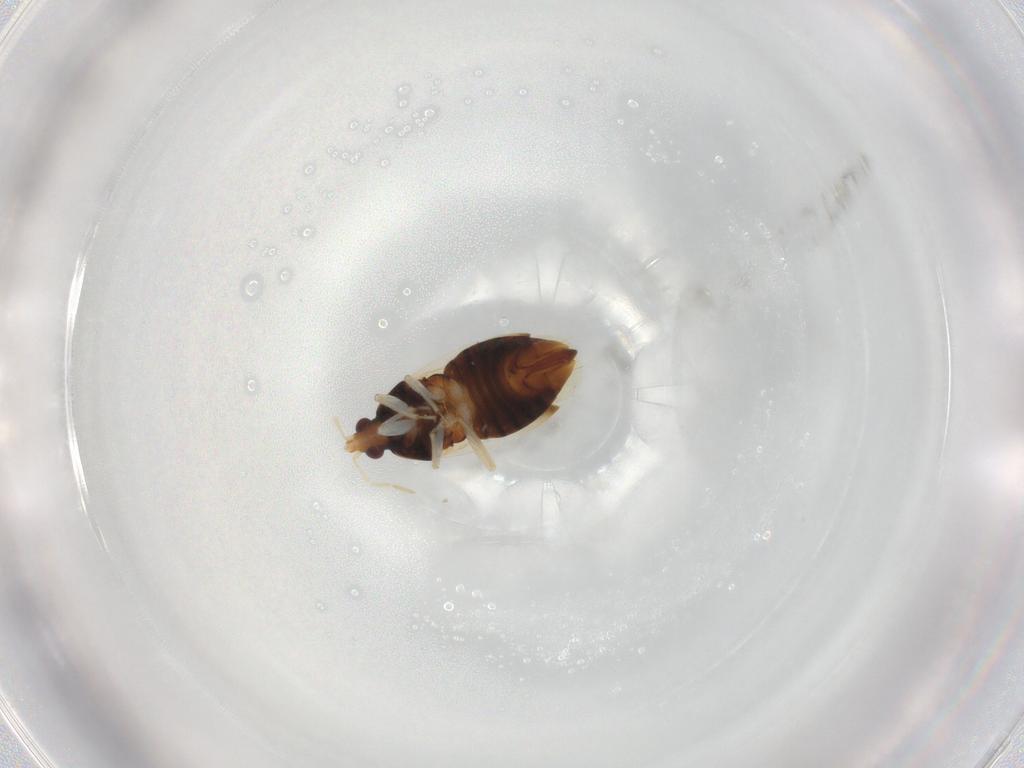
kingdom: Animalia
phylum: Arthropoda
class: Insecta
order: Hemiptera
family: Anthocoridae
